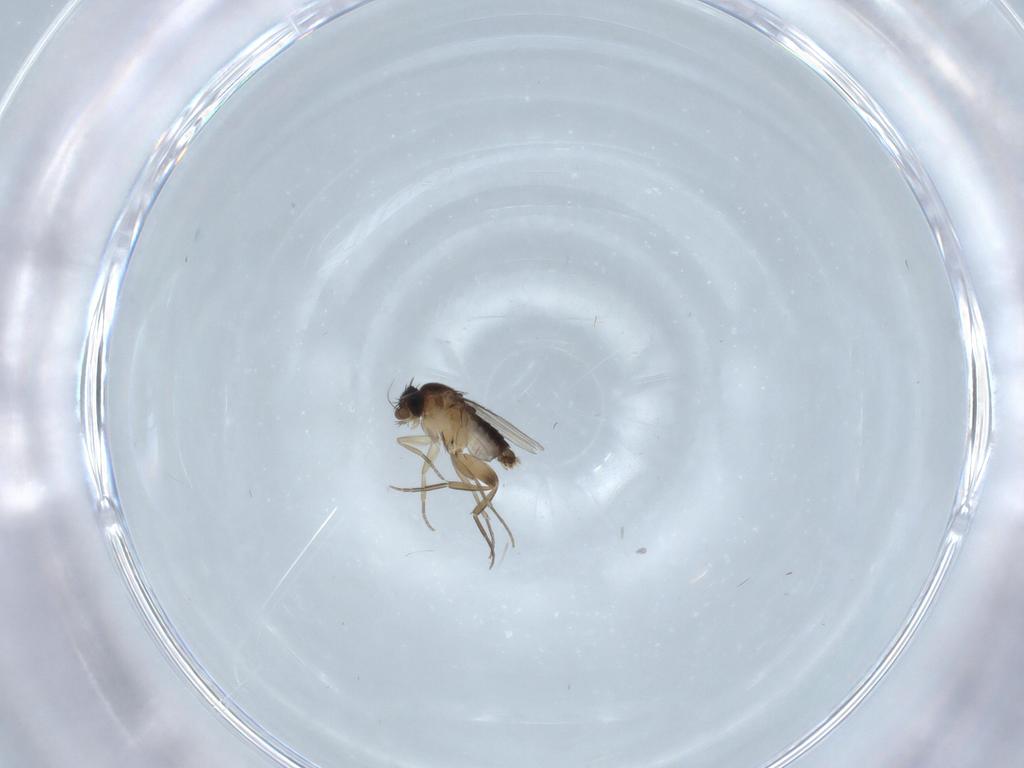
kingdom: Animalia
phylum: Arthropoda
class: Insecta
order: Diptera
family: Phoridae
